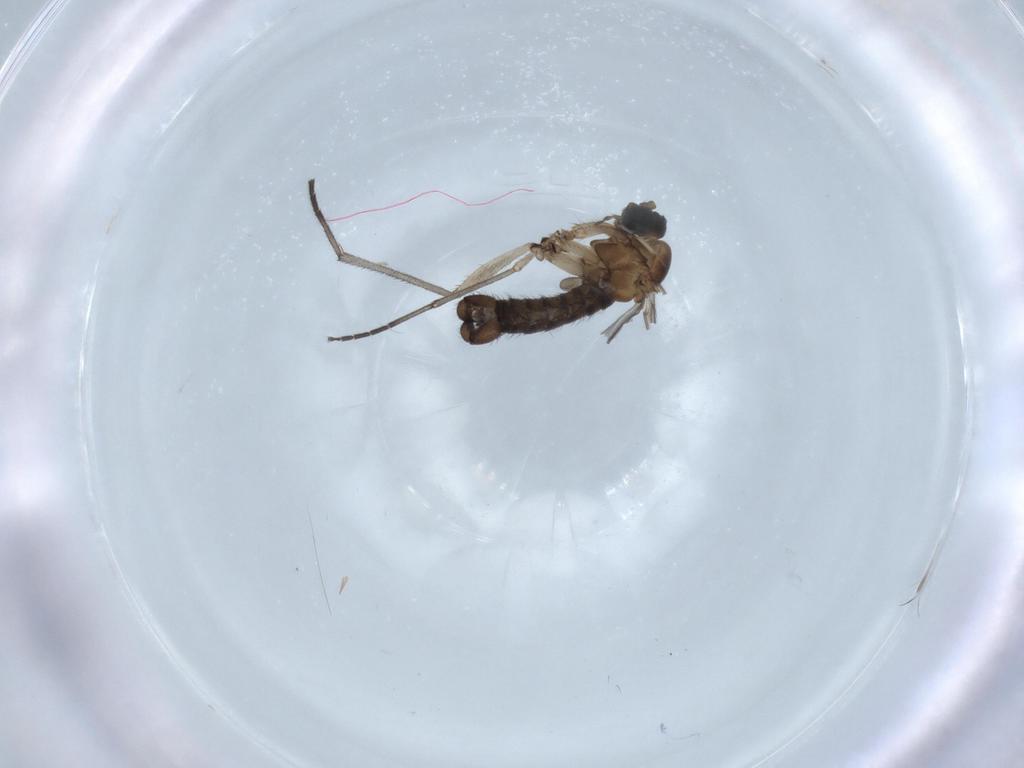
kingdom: Animalia
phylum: Arthropoda
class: Insecta
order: Diptera
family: Sciaridae
